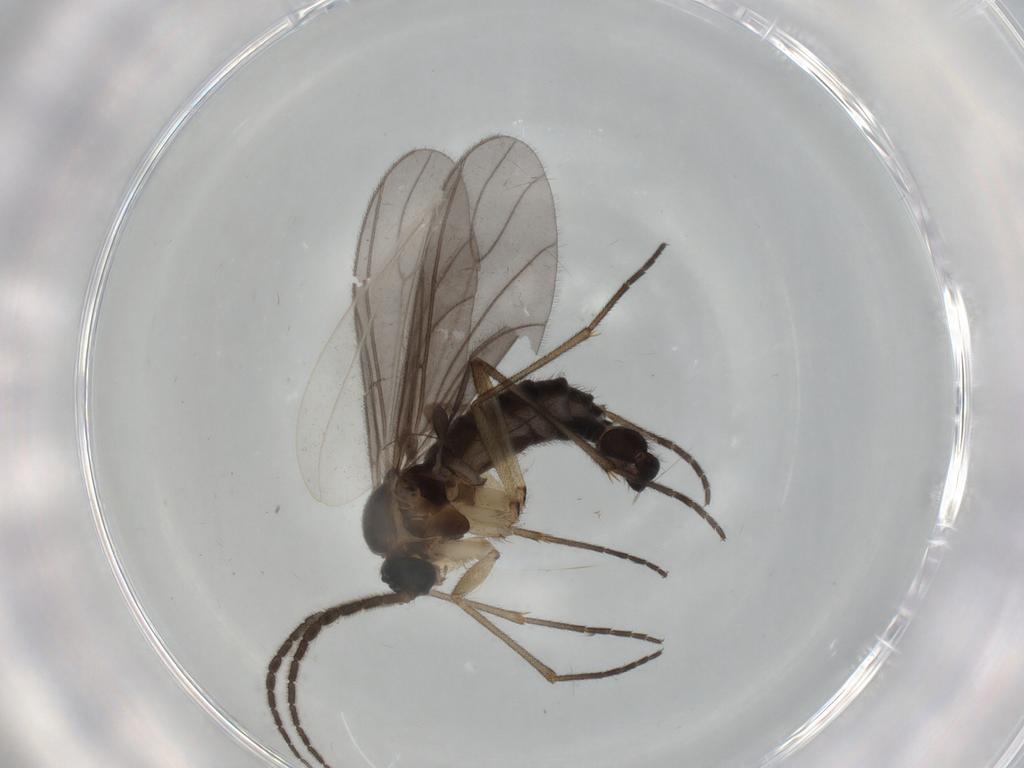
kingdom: Animalia
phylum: Arthropoda
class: Insecta
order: Diptera
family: Sciaridae
